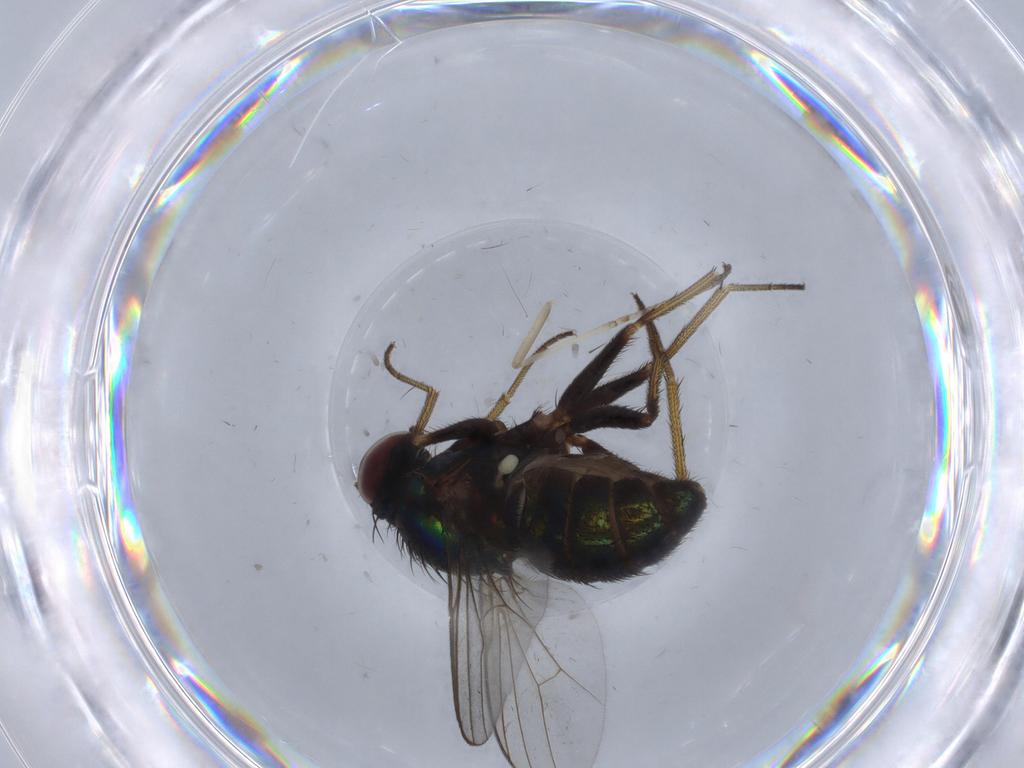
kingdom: Animalia
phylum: Arthropoda
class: Insecta
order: Diptera
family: Dolichopodidae
